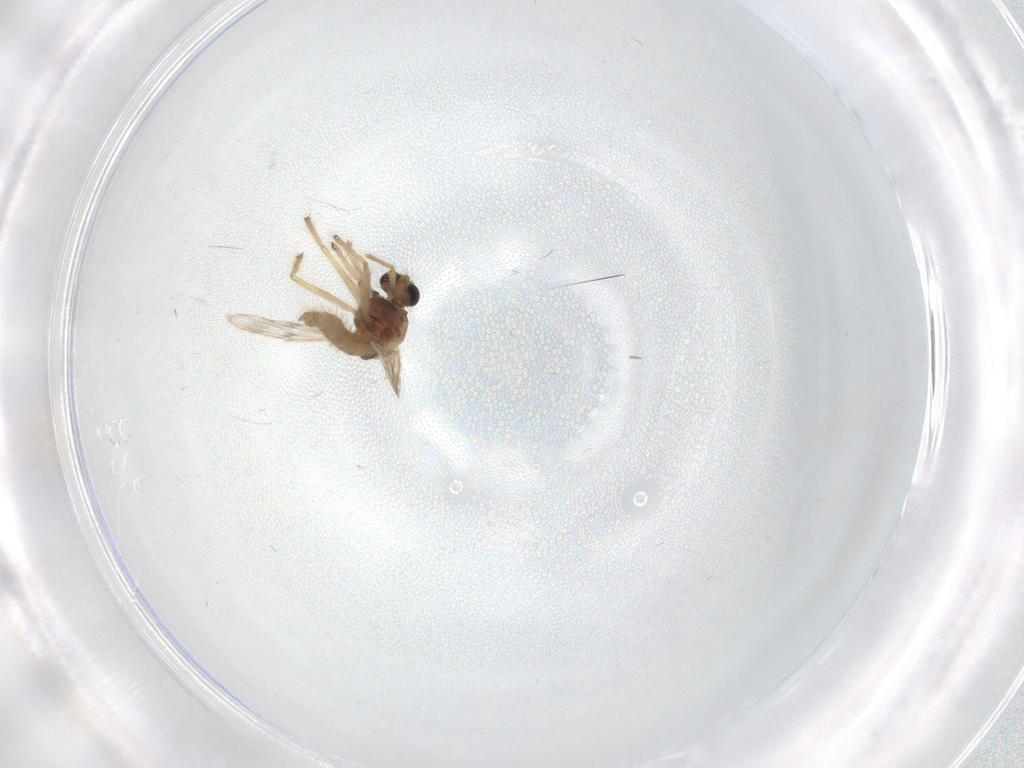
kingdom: Animalia
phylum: Arthropoda
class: Insecta
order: Diptera
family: Chironomidae
